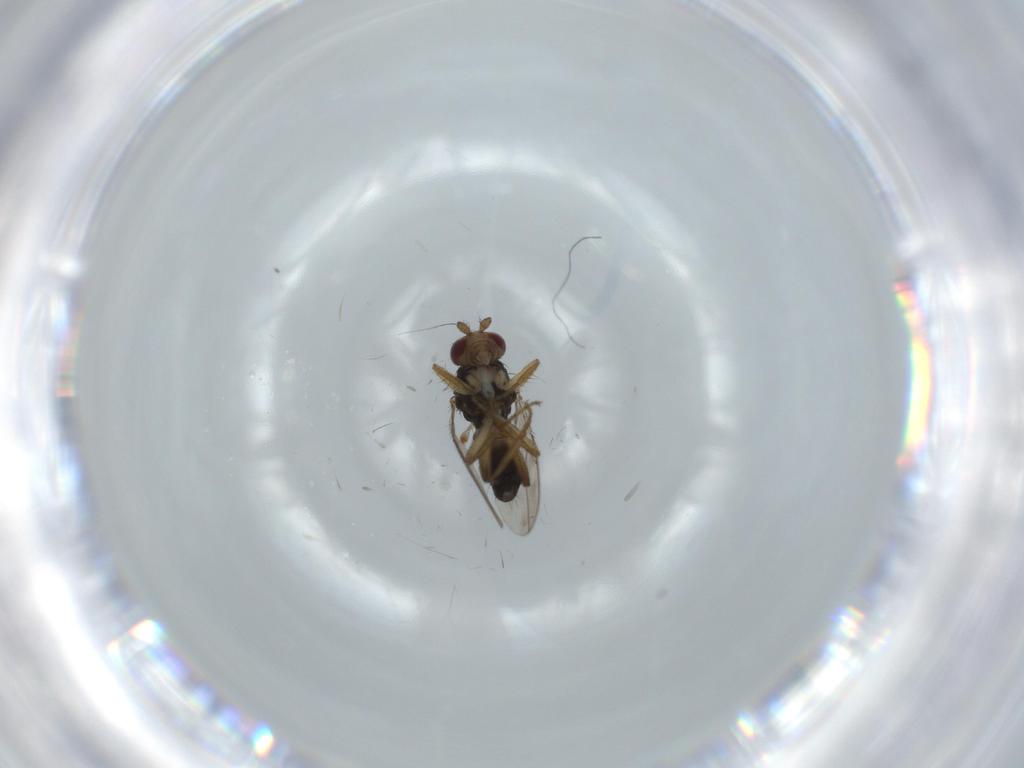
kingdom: Animalia
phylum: Arthropoda
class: Insecta
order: Diptera
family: Sphaeroceridae
